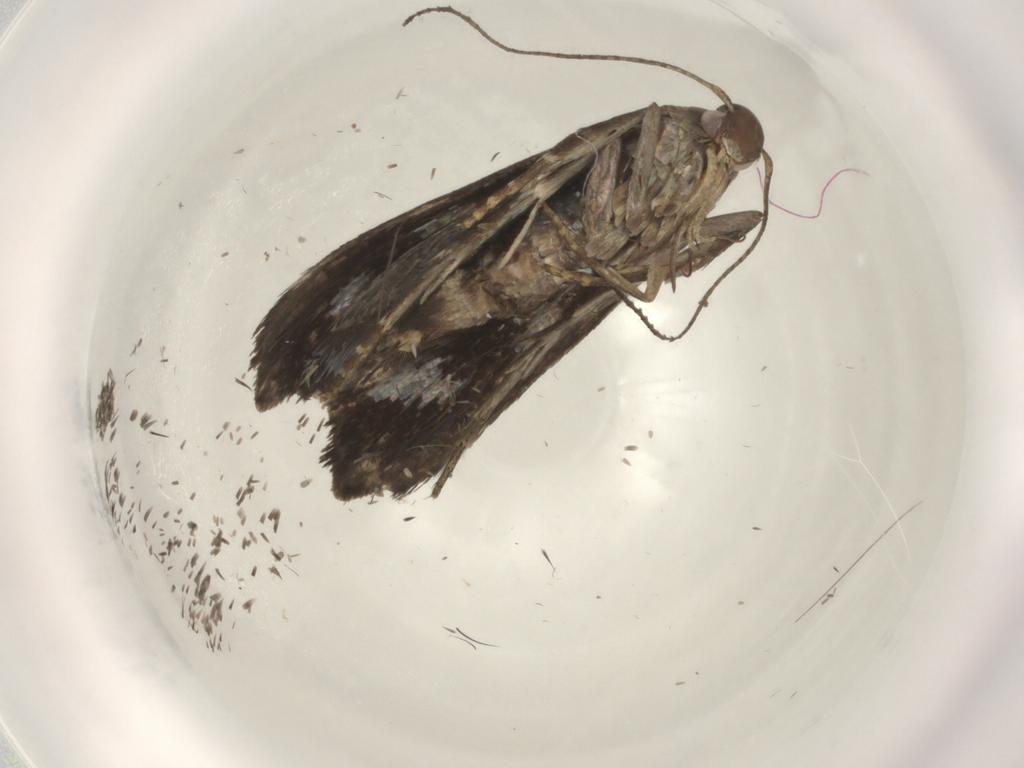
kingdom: Animalia
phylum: Arthropoda
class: Insecta
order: Lepidoptera
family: Gelechiidae
